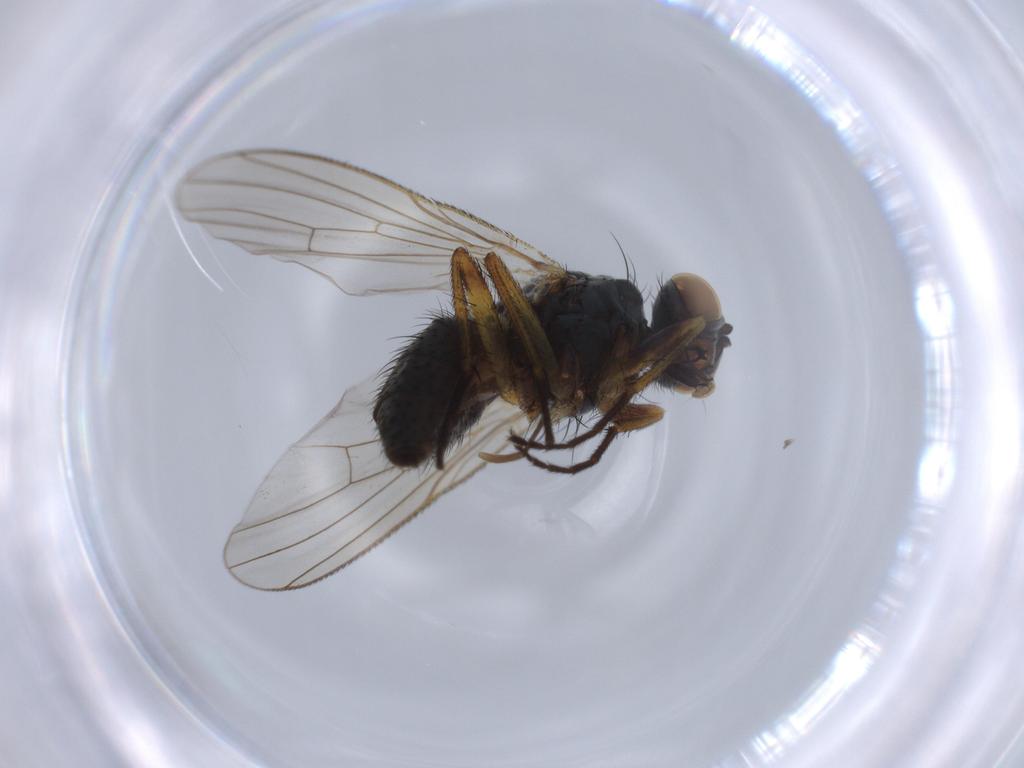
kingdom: Animalia
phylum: Arthropoda
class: Insecta
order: Diptera
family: Muscidae
